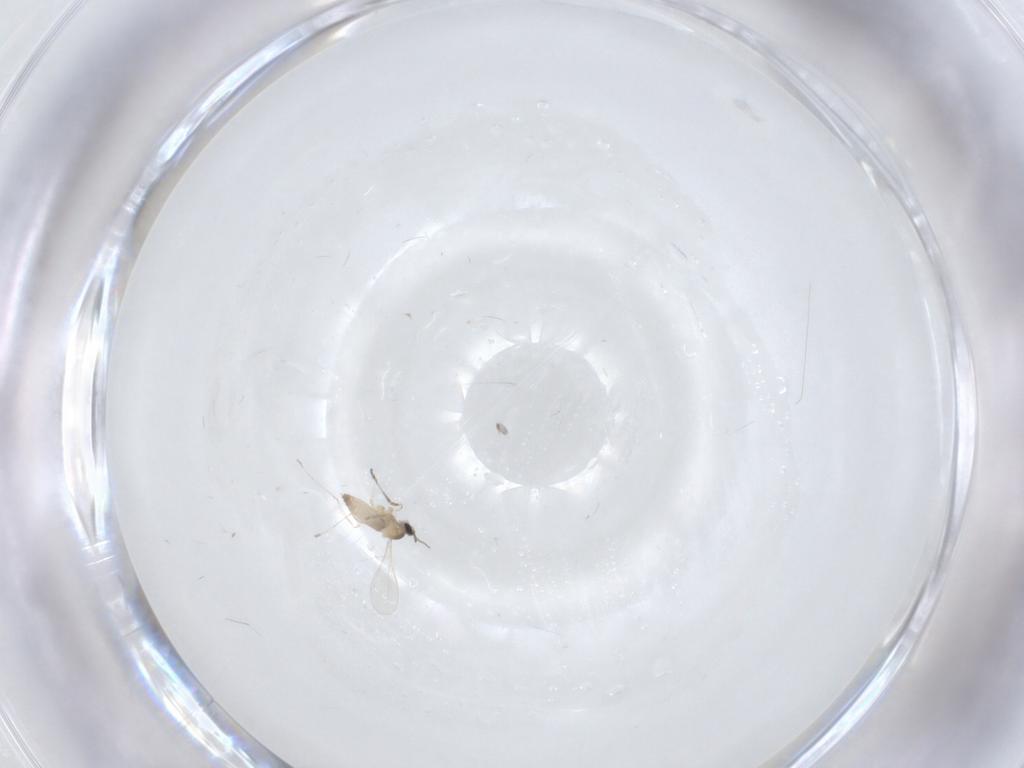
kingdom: Animalia
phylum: Arthropoda
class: Insecta
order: Diptera
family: Cecidomyiidae
